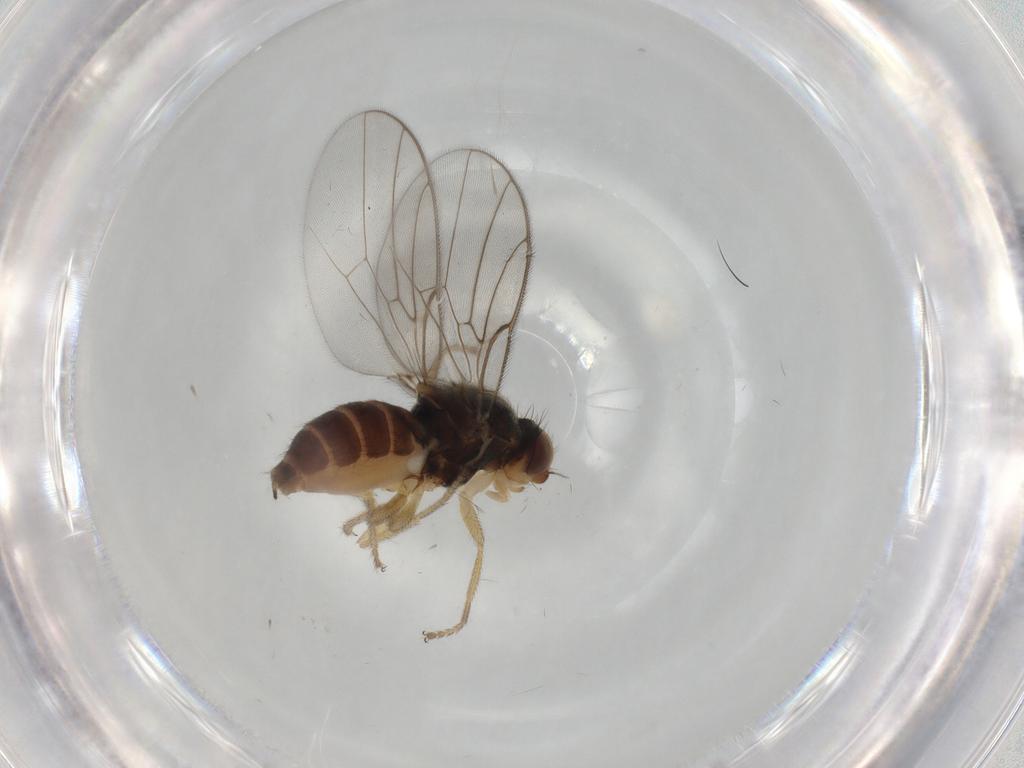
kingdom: Animalia
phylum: Arthropoda
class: Insecta
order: Diptera
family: Chloropidae
